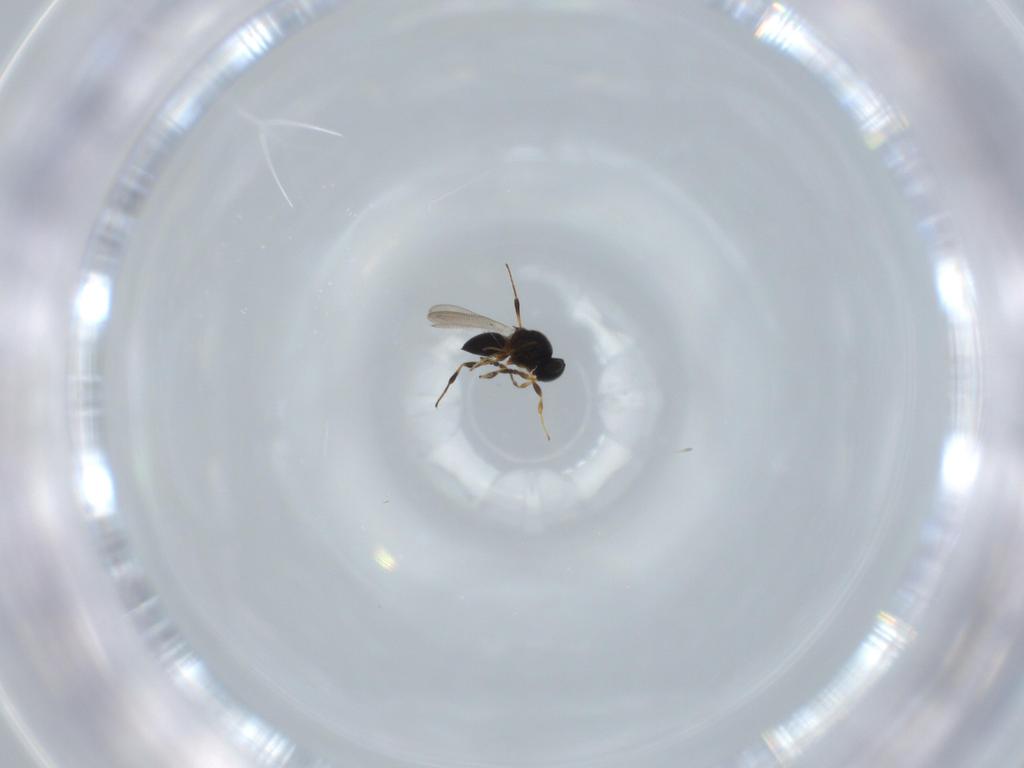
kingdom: Animalia
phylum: Arthropoda
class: Insecta
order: Hymenoptera
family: Platygastridae
